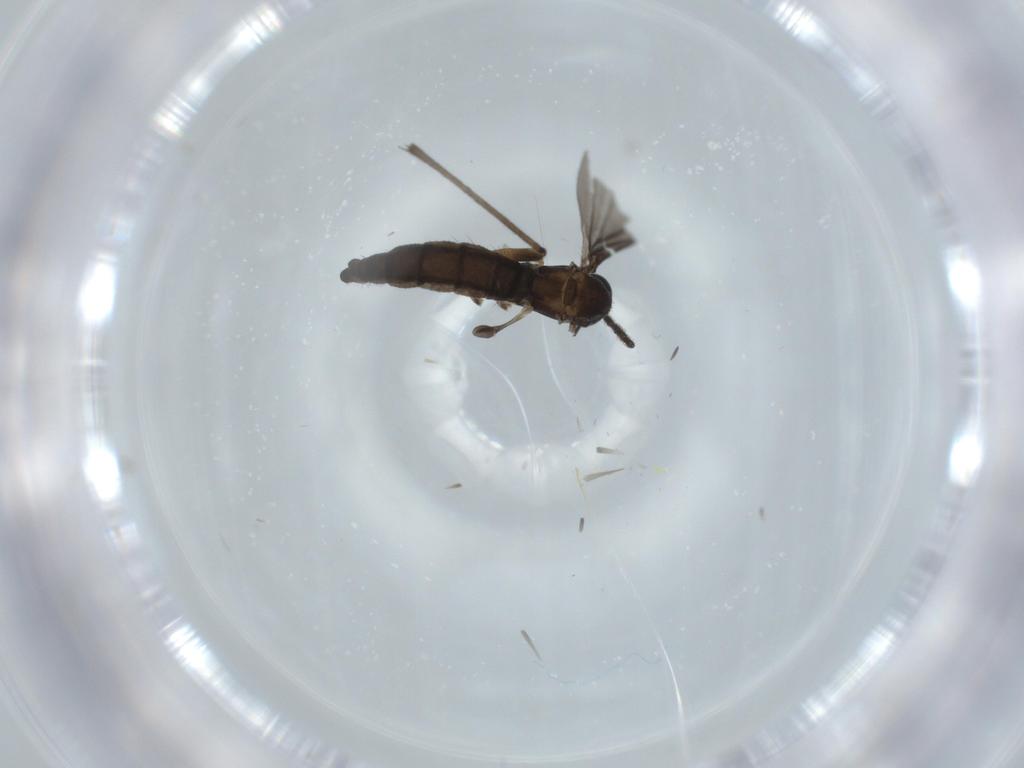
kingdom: Animalia
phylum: Arthropoda
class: Insecta
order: Diptera
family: Sciaridae
